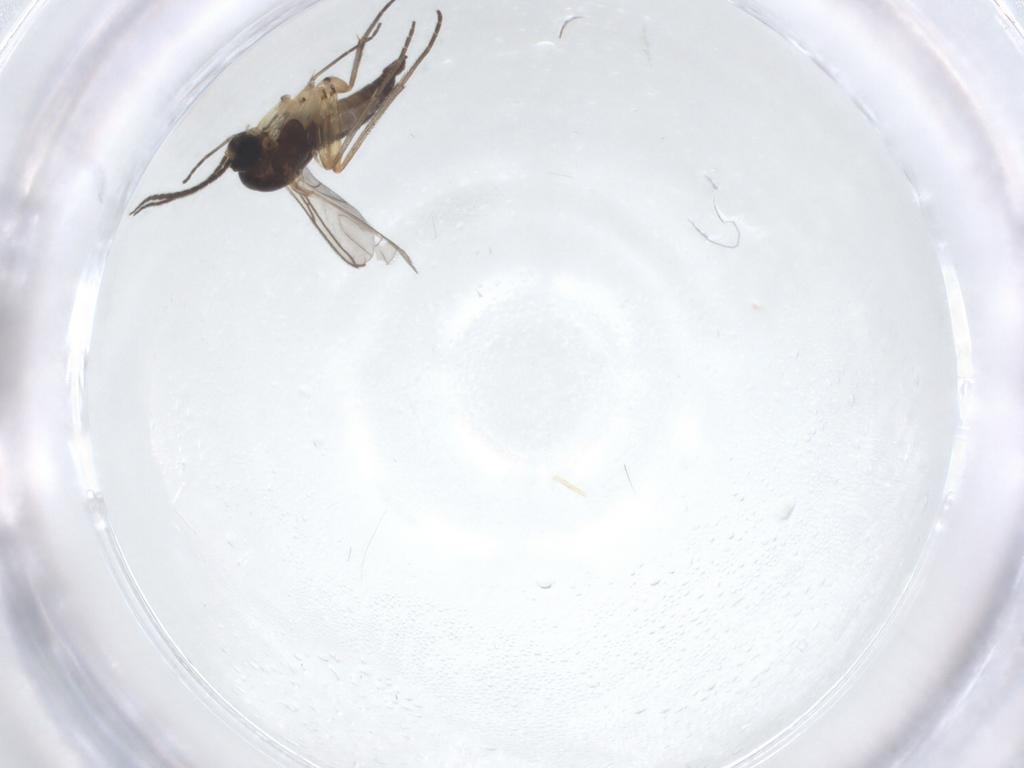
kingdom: Animalia
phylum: Arthropoda
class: Insecta
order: Diptera
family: Sciaridae
